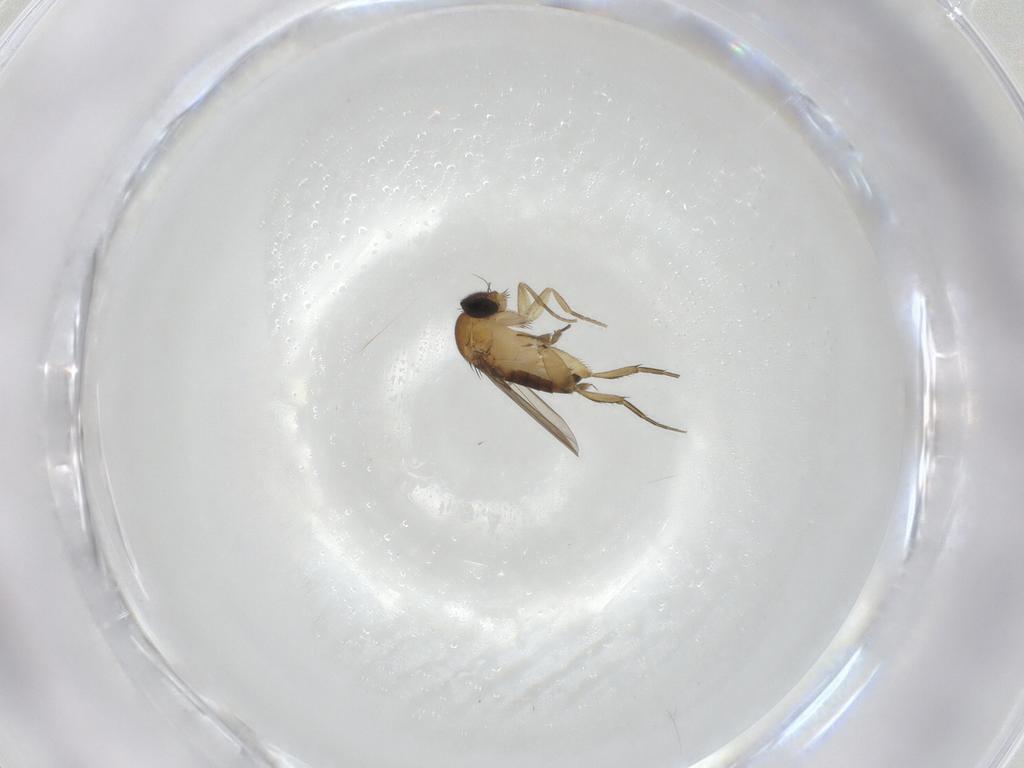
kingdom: Animalia
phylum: Arthropoda
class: Insecta
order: Diptera
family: Phoridae
